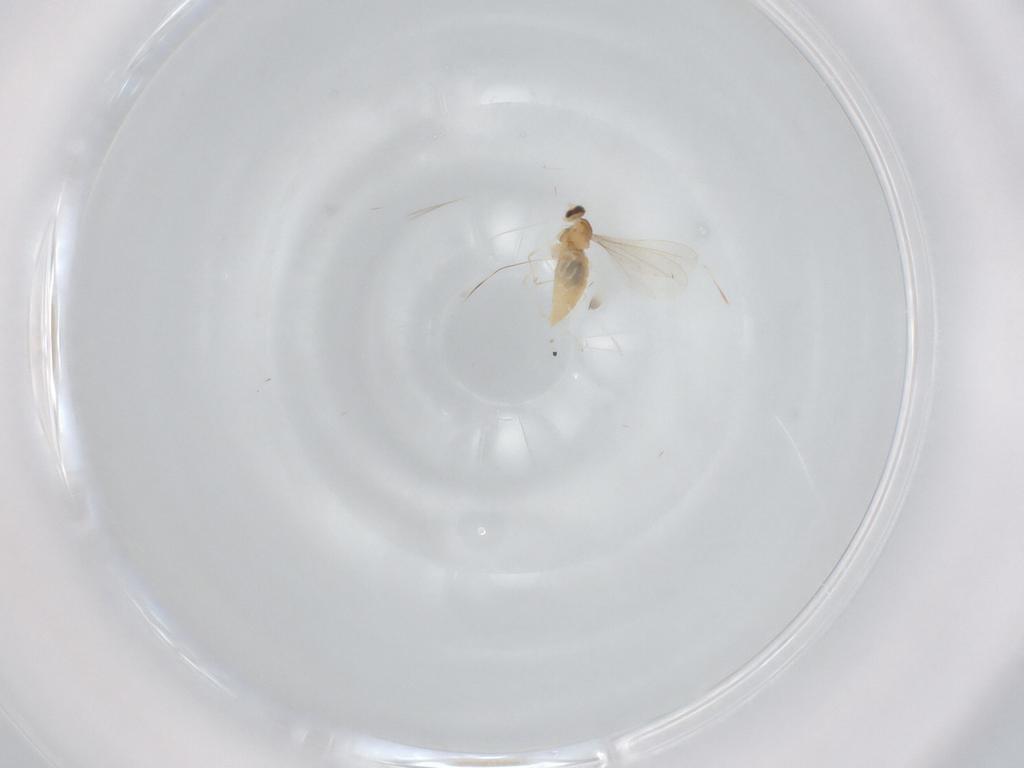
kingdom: Animalia
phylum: Arthropoda
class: Insecta
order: Diptera
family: Cecidomyiidae
